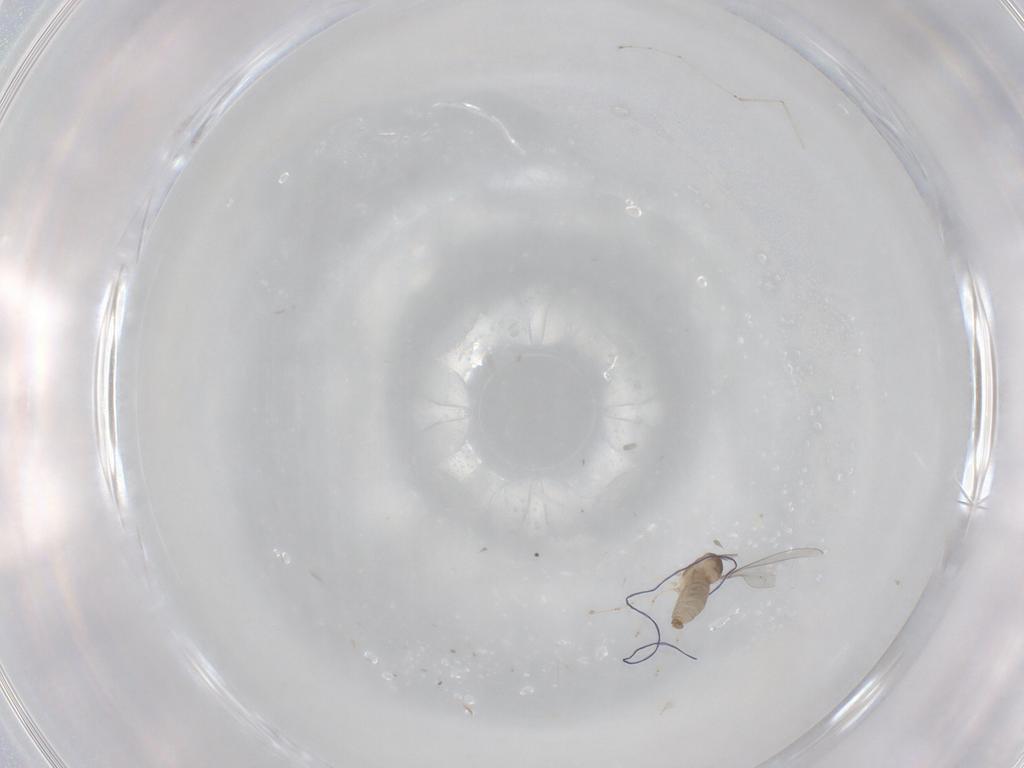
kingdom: Animalia
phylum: Arthropoda
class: Insecta
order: Diptera
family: Cecidomyiidae
